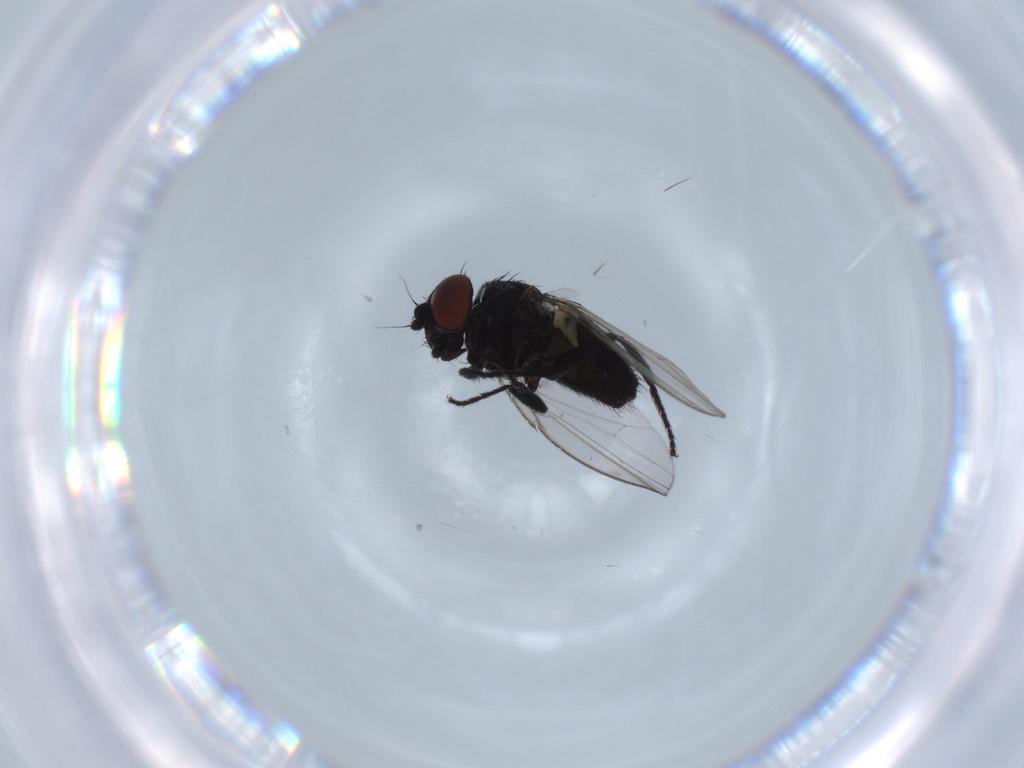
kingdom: Animalia
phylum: Arthropoda
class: Insecta
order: Diptera
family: Milichiidae
